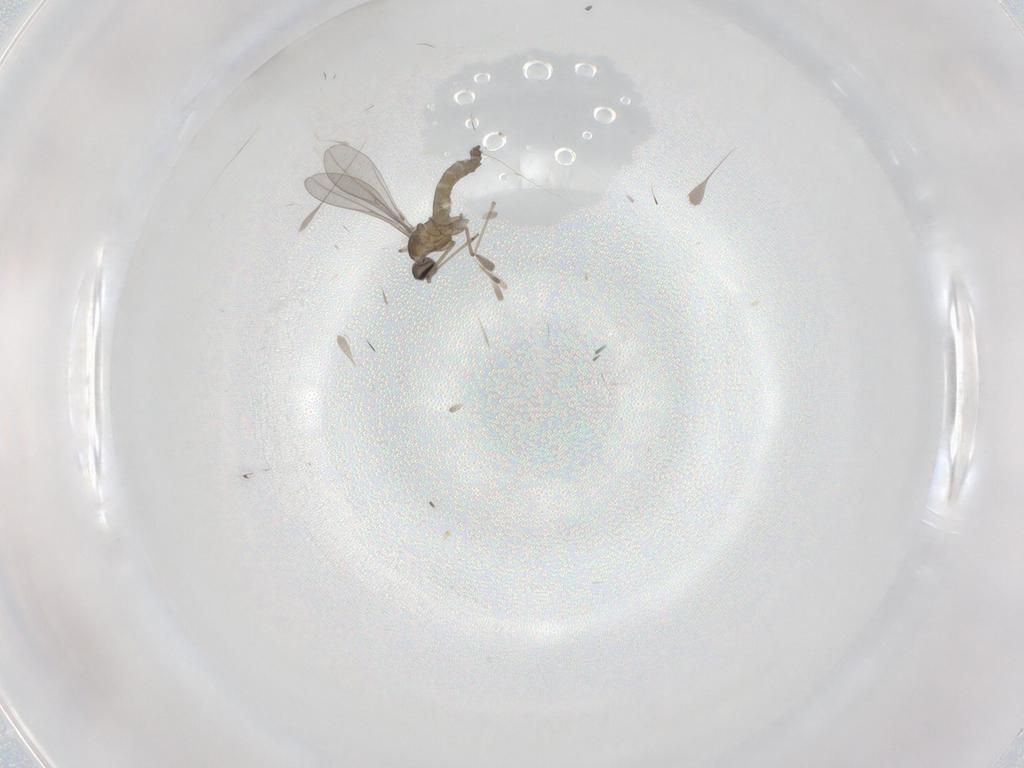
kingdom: Animalia
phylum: Arthropoda
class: Insecta
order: Diptera
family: Cecidomyiidae
